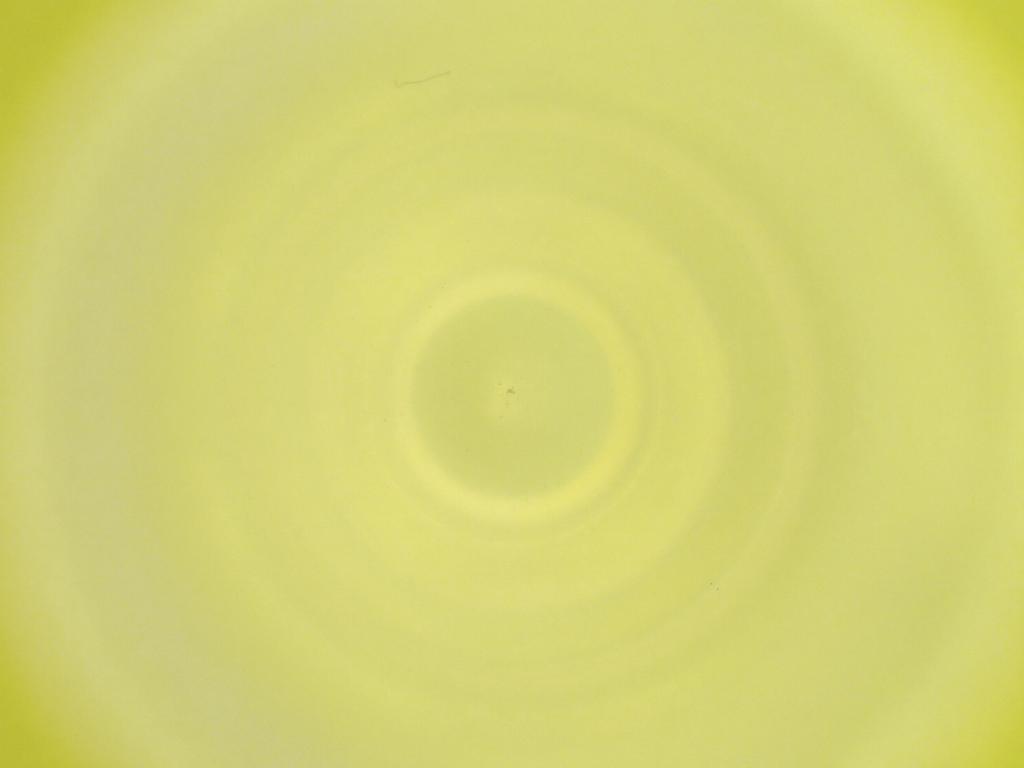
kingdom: Animalia
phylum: Arthropoda
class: Insecta
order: Diptera
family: Cecidomyiidae
